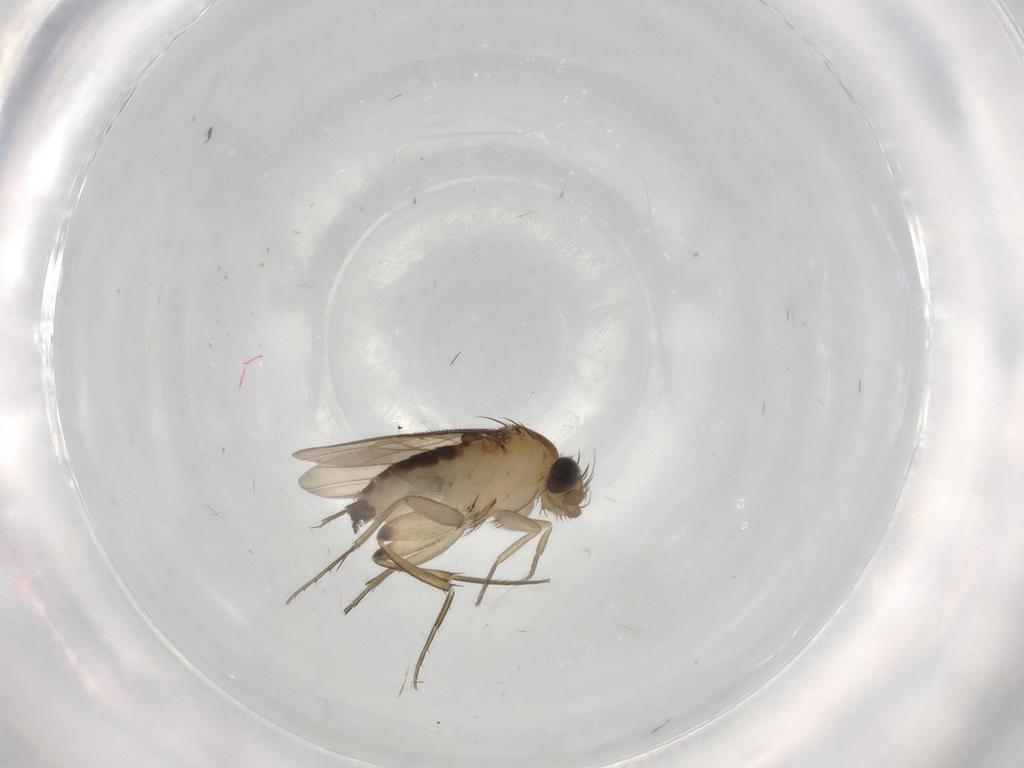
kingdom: Animalia
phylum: Arthropoda
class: Insecta
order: Diptera
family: Phoridae
